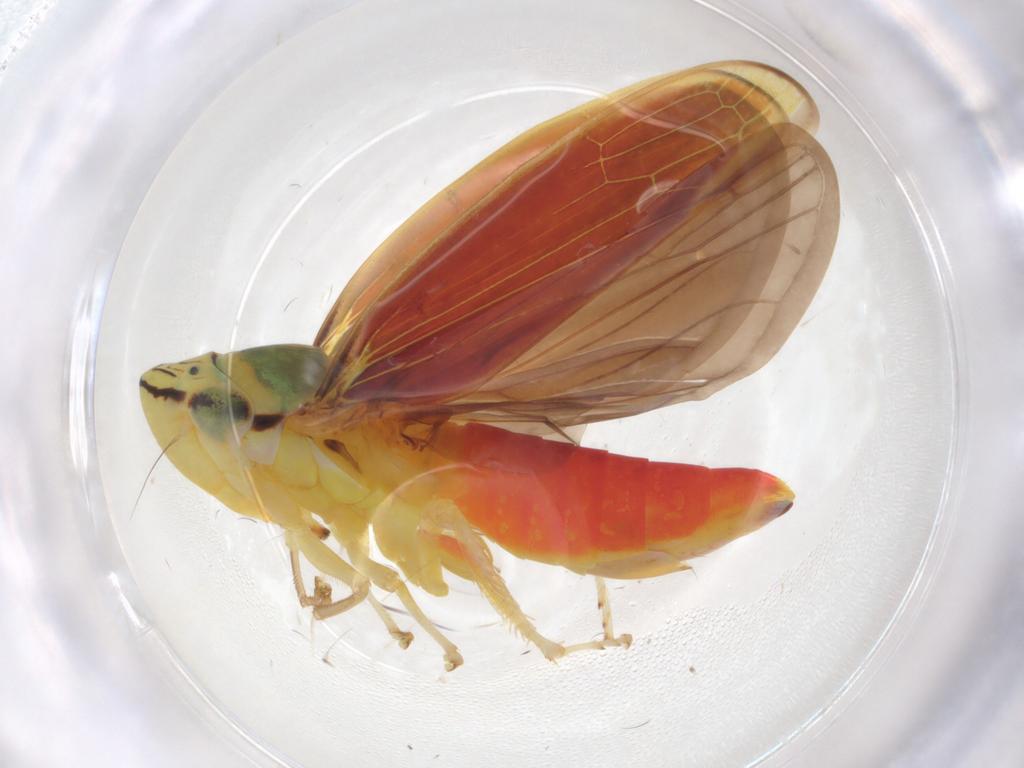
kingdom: Animalia
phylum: Arthropoda
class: Insecta
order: Hemiptera
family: Cicadellidae
